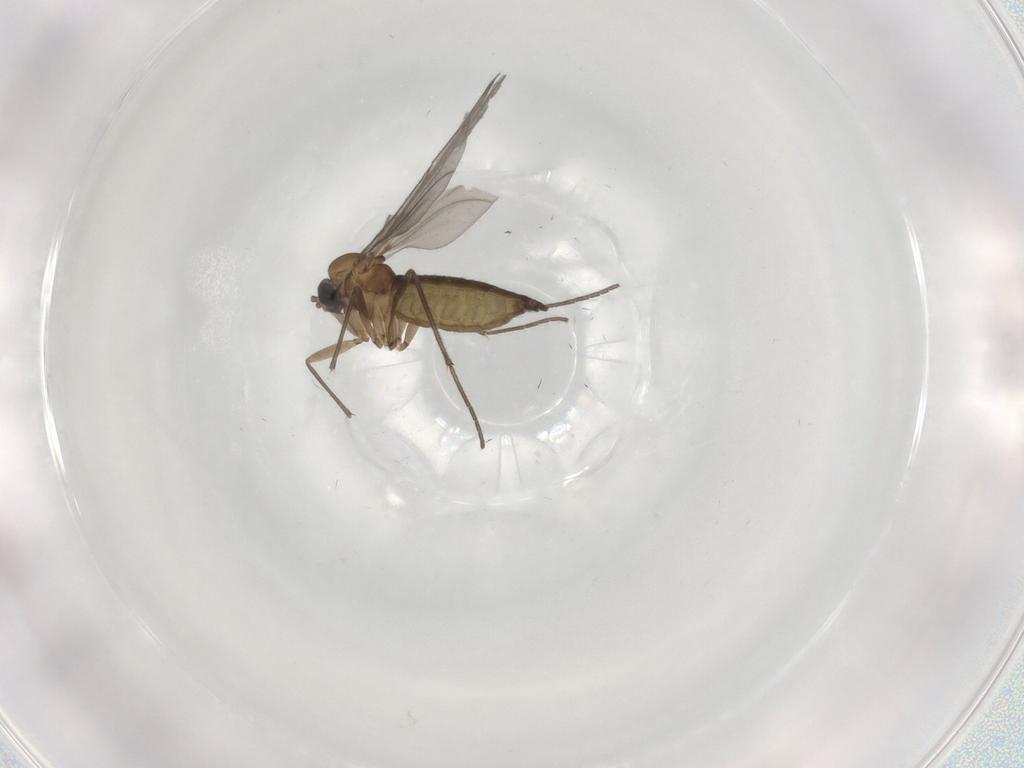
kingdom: Animalia
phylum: Arthropoda
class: Insecta
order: Diptera
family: Sciaridae
